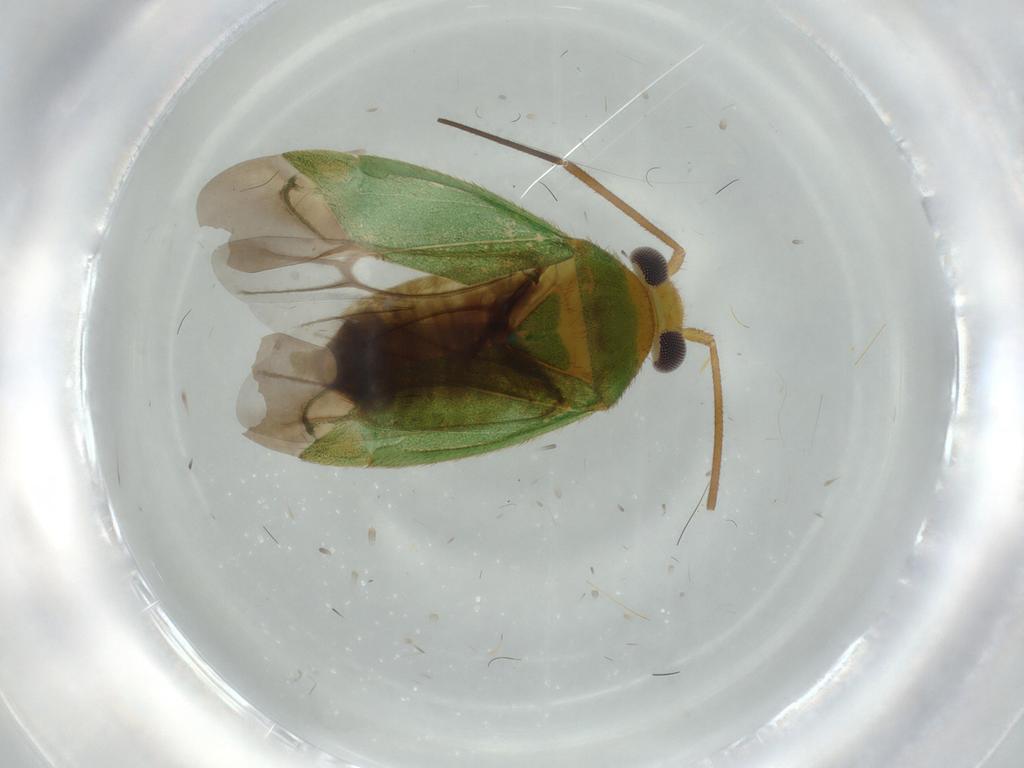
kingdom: Animalia
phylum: Arthropoda
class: Insecta
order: Hemiptera
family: Miridae
